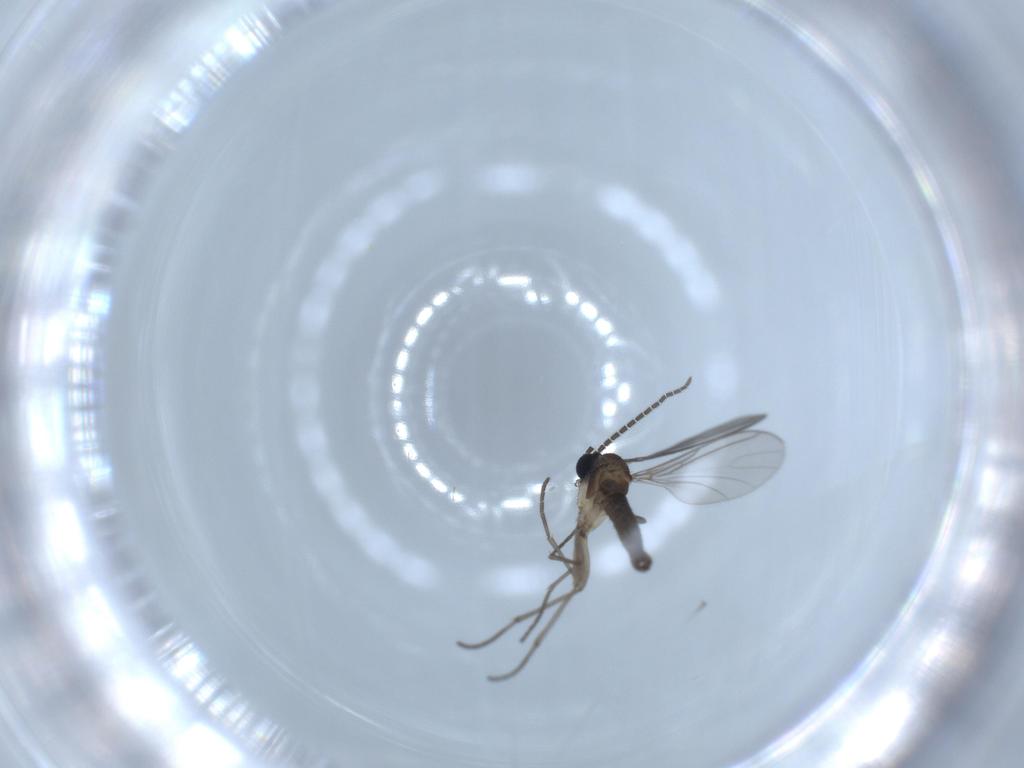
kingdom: Animalia
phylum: Arthropoda
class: Insecta
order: Diptera
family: Sciaridae
